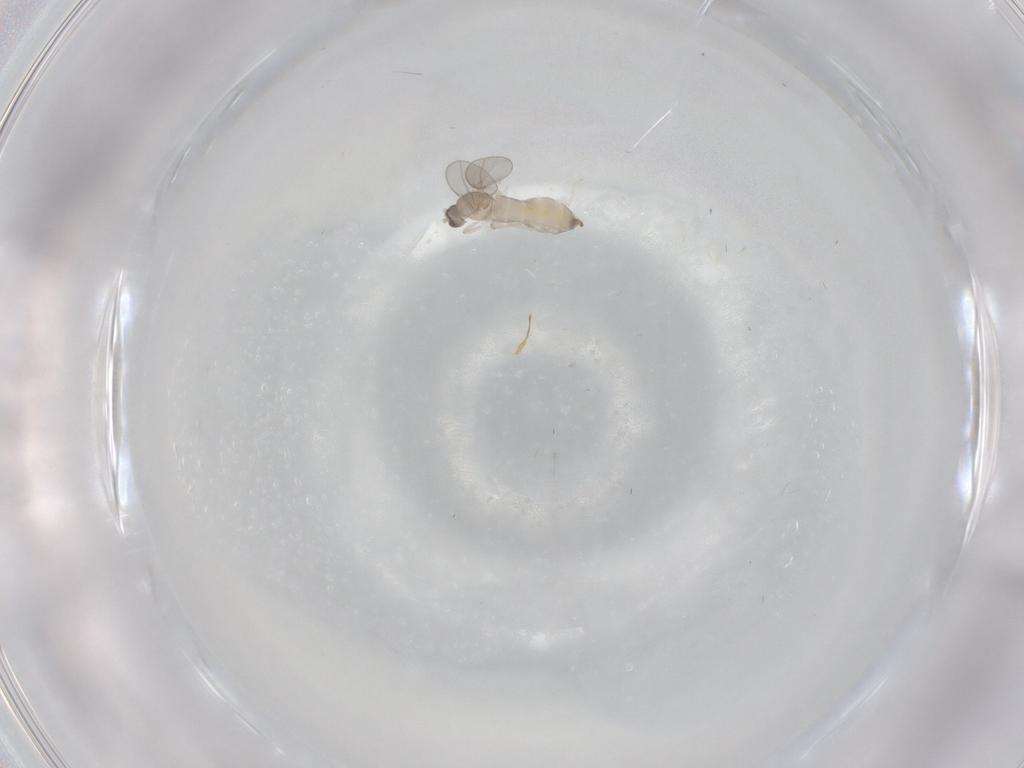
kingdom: Animalia
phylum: Arthropoda
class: Insecta
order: Diptera
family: Cecidomyiidae
